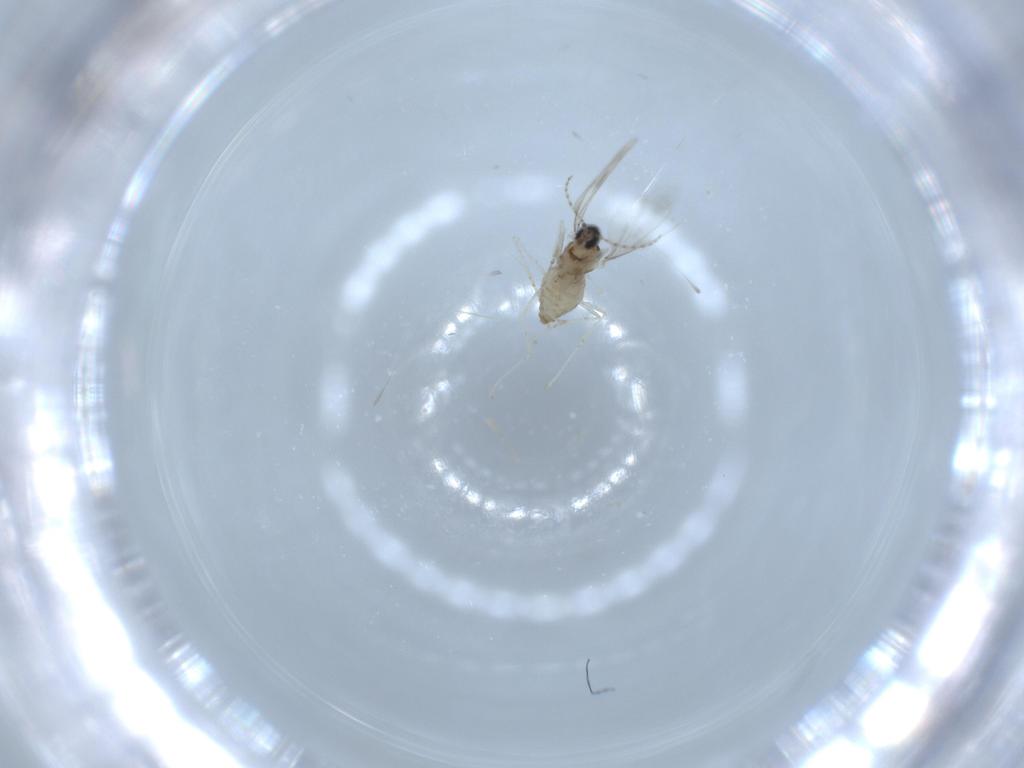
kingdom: Animalia
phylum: Arthropoda
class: Insecta
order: Diptera
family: Cecidomyiidae
